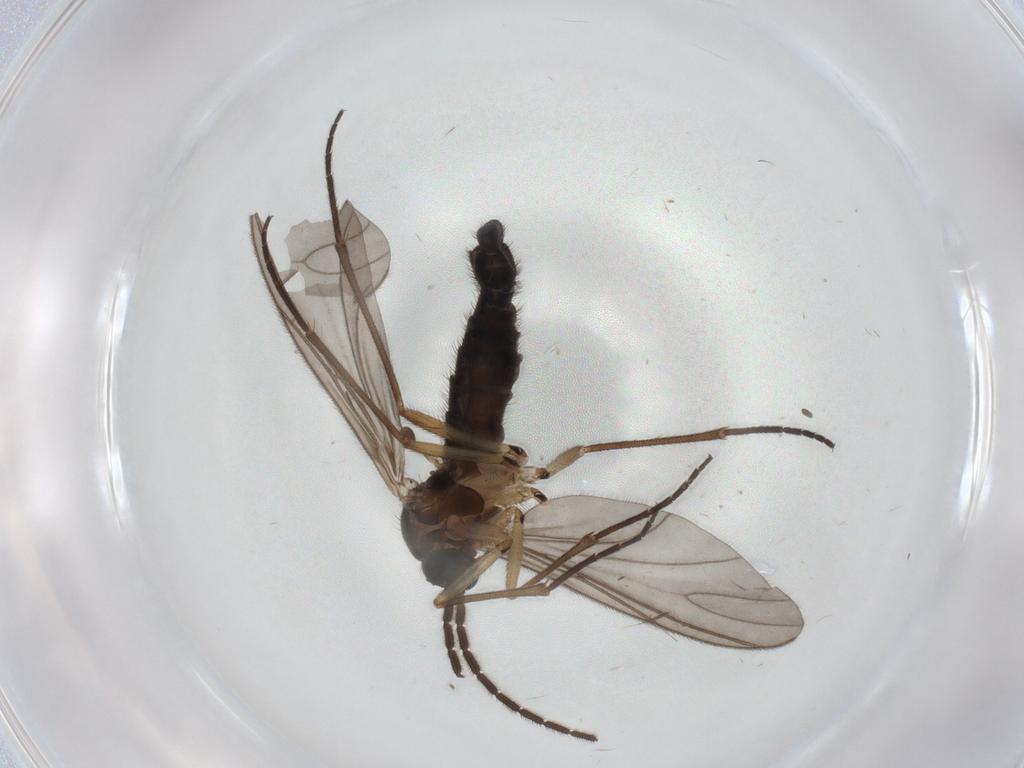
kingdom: Animalia
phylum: Arthropoda
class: Insecta
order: Diptera
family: Sciaridae
